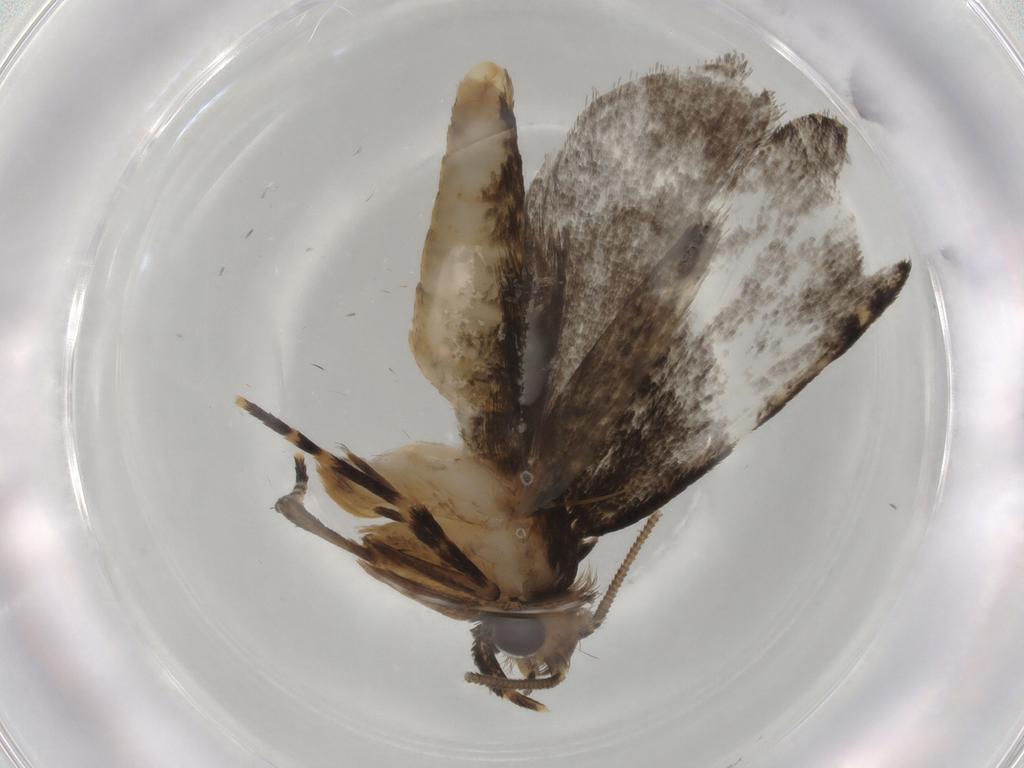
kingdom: Animalia
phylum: Arthropoda
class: Insecta
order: Lepidoptera
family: Tineidae
